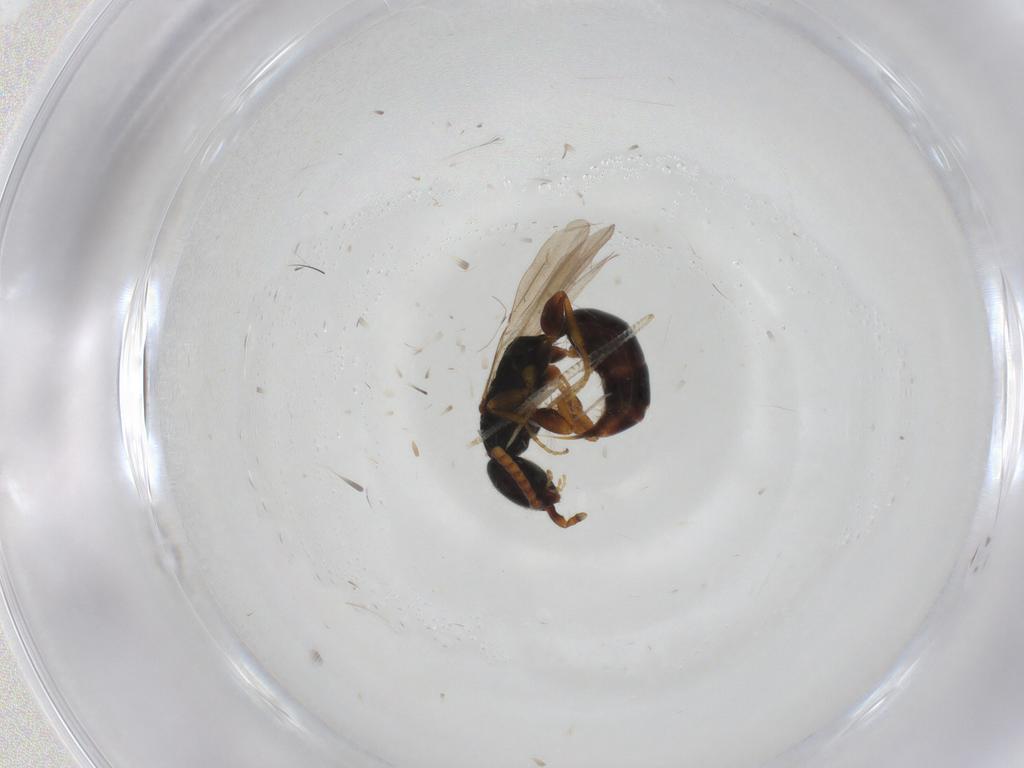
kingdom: Animalia
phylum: Arthropoda
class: Insecta
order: Hymenoptera
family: Bethylidae
